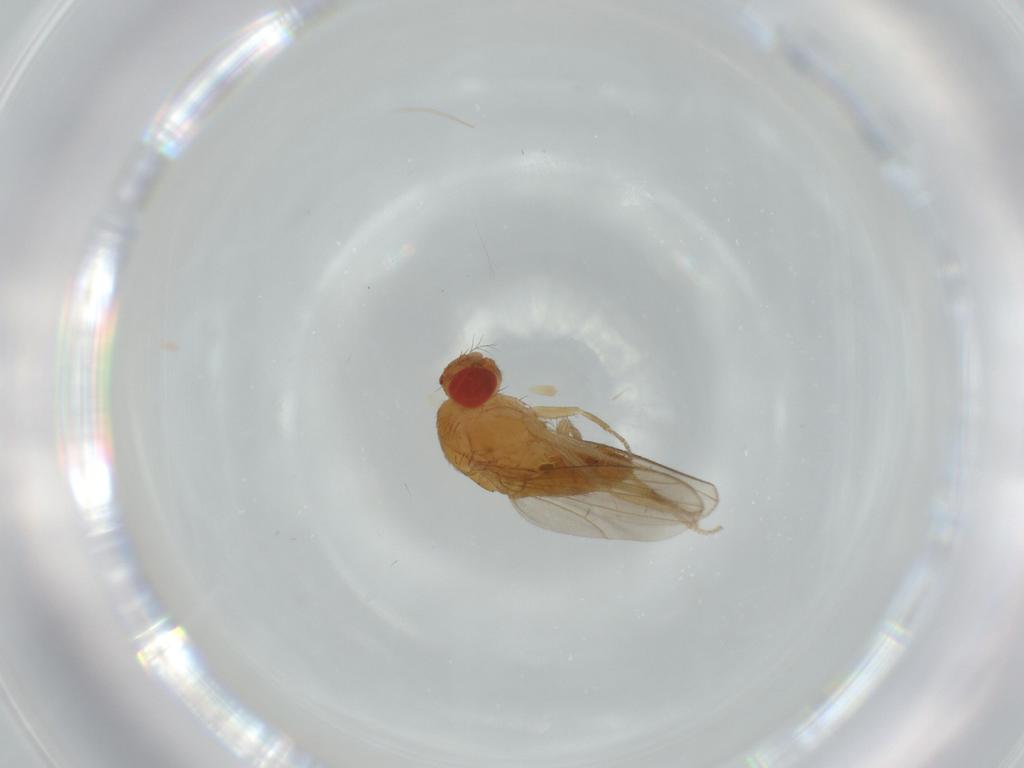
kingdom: Animalia
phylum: Arthropoda
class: Insecta
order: Diptera
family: Drosophilidae
